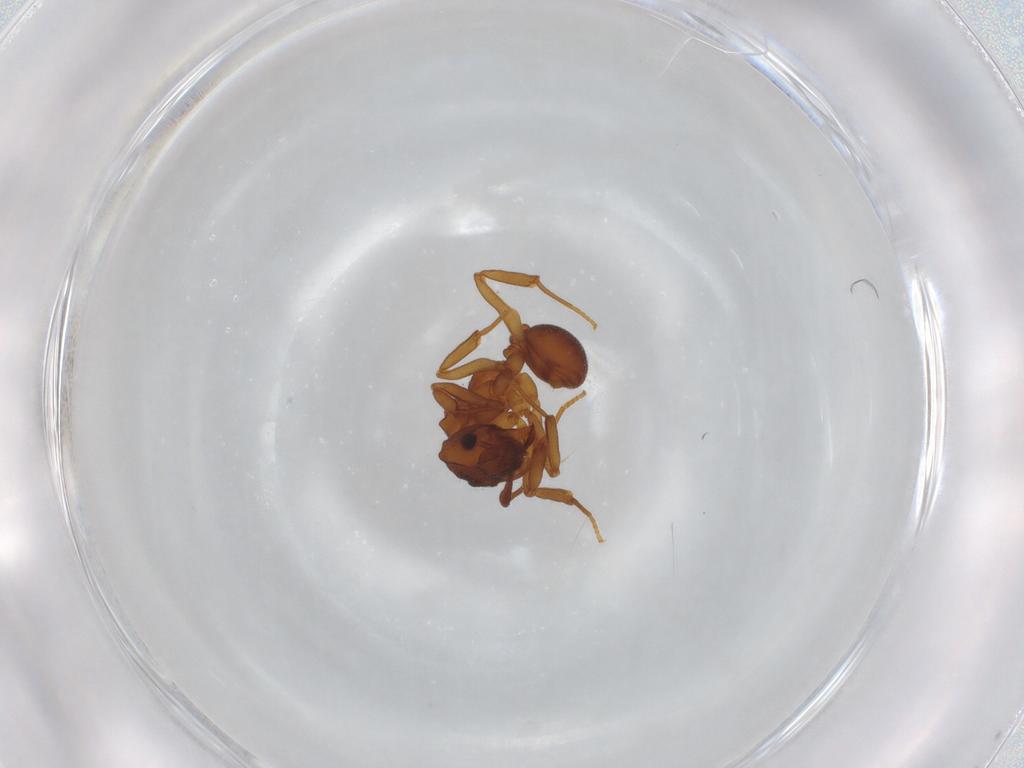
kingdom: Animalia
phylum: Arthropoda
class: Insecta
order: Hymenoptera
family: Formicidae
